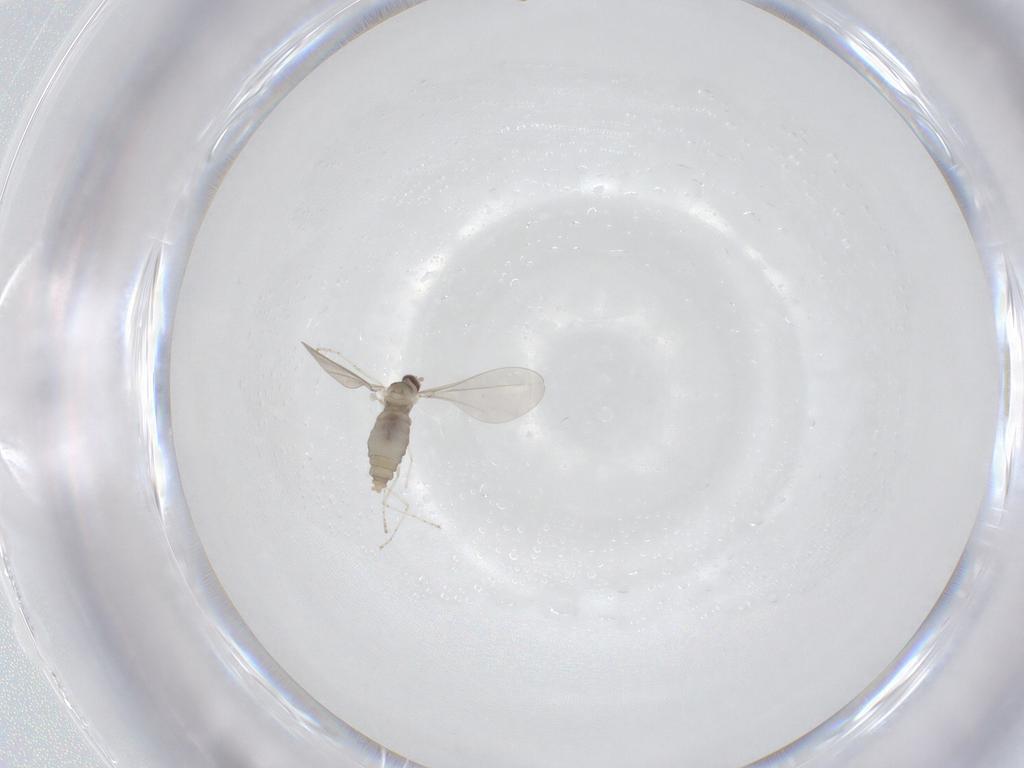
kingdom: Animalia
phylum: Arthropoda
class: Insecta
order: Diptera
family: Cecidomyiidae
